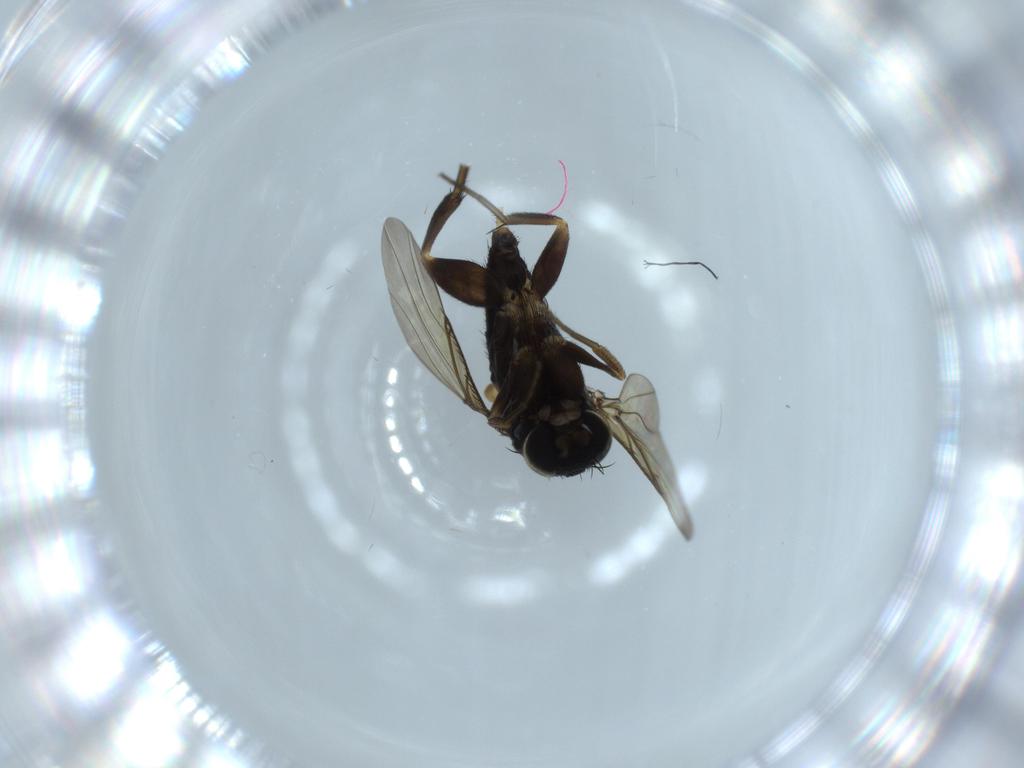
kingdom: Animalia
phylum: Arthropoda
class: Insecta
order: Diptera
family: Phoridae
